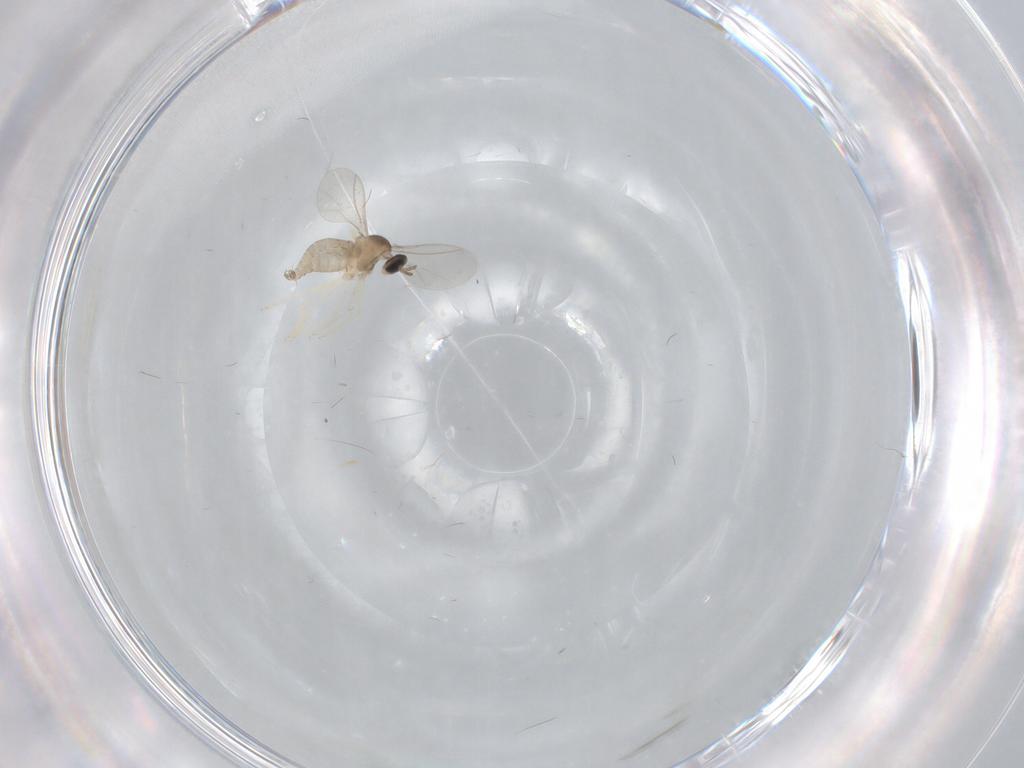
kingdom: Animalia
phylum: Arthropoda
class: Insecta
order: Diptera
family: Cecidomyiidae
